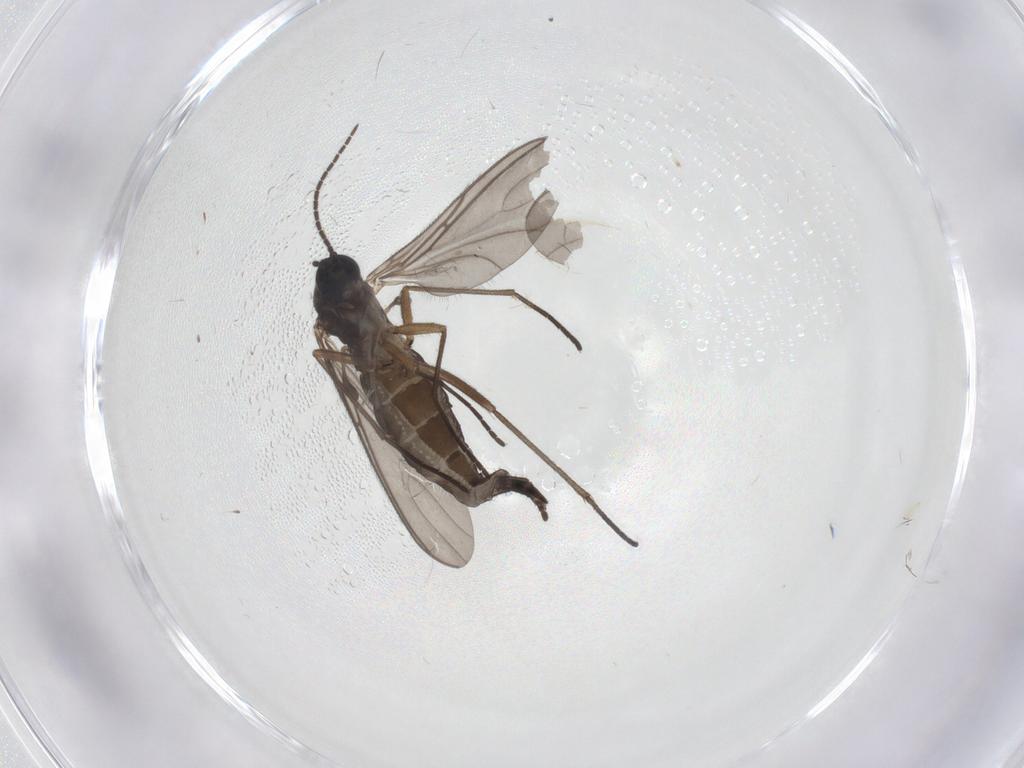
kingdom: Animalia
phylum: Arthropoda
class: Insecta
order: Diptera
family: Sciaridae
